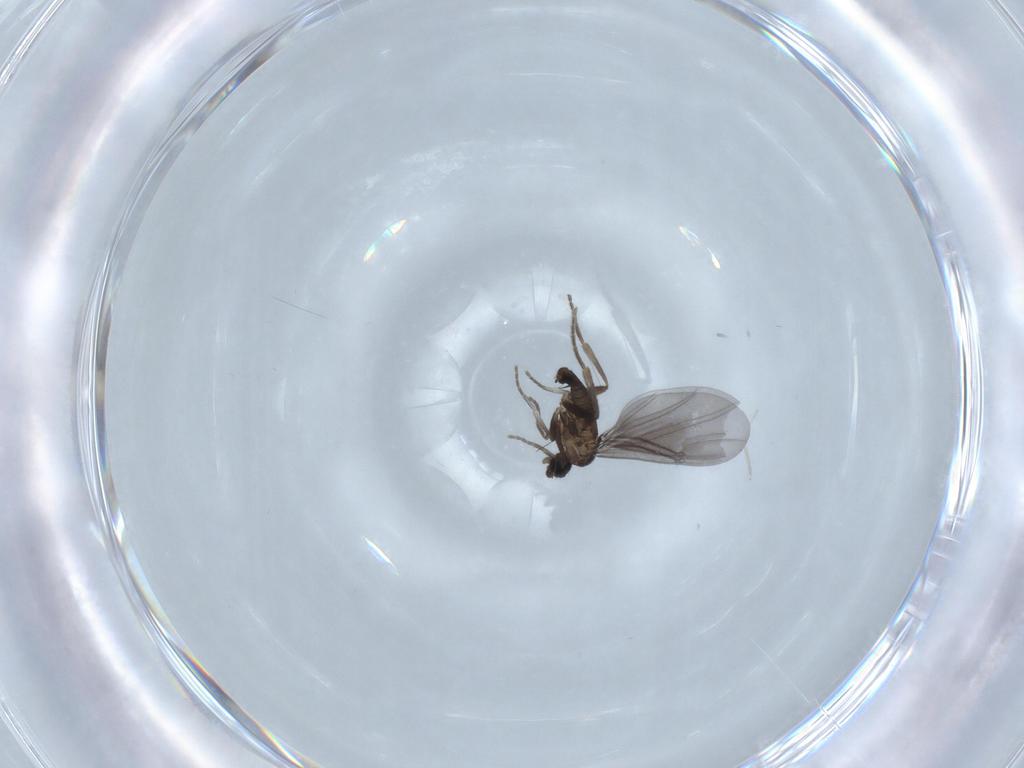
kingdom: Animalia
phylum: Arthropoda
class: Insecta
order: Diptera
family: Phoridae
